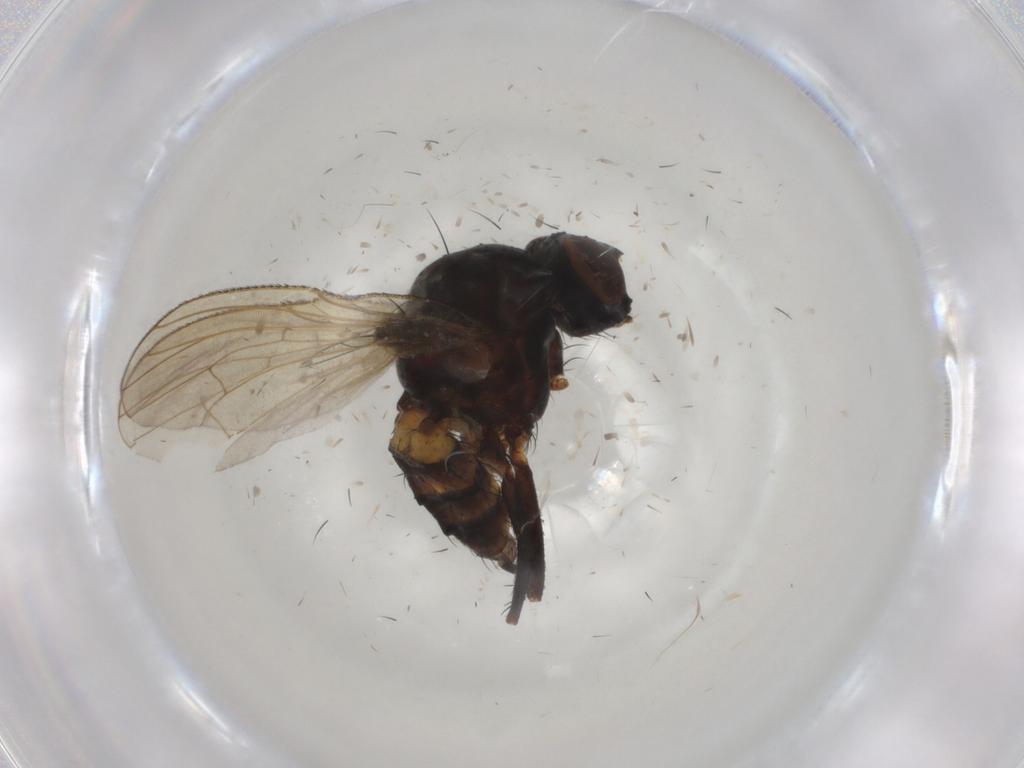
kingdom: Animalia
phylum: Arthropoda
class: Insecta
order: Diptera
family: Anthomyiidae
